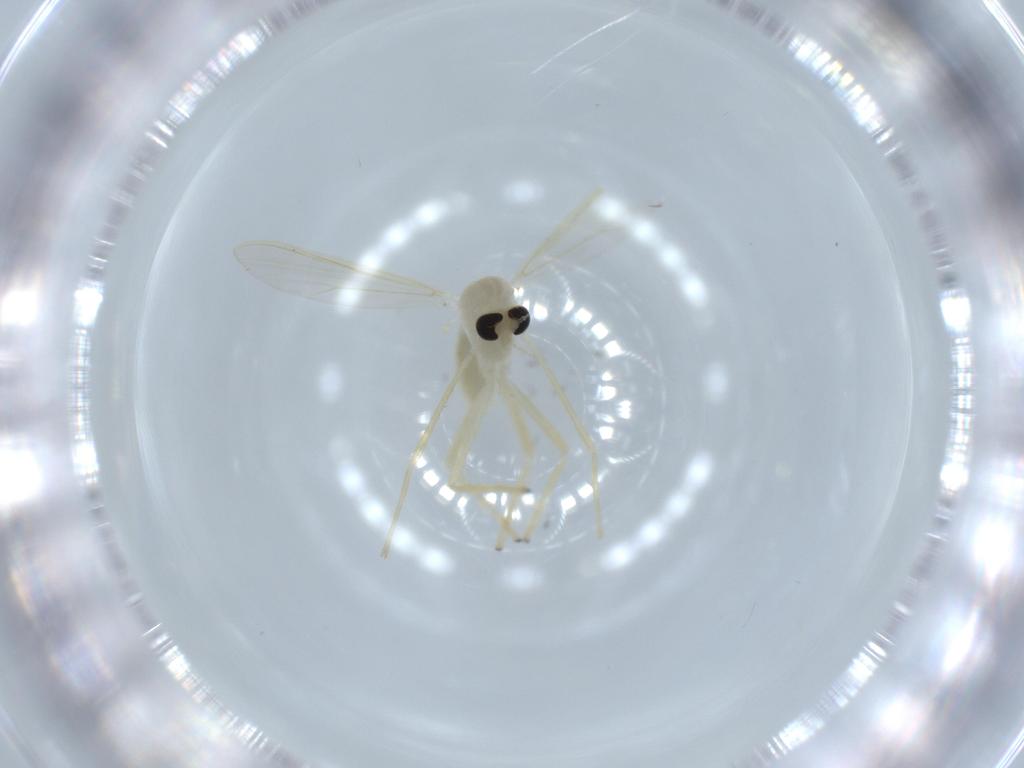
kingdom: Animalia
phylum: Arthropoda
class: Insecta
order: Diptera
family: Chironomidae
